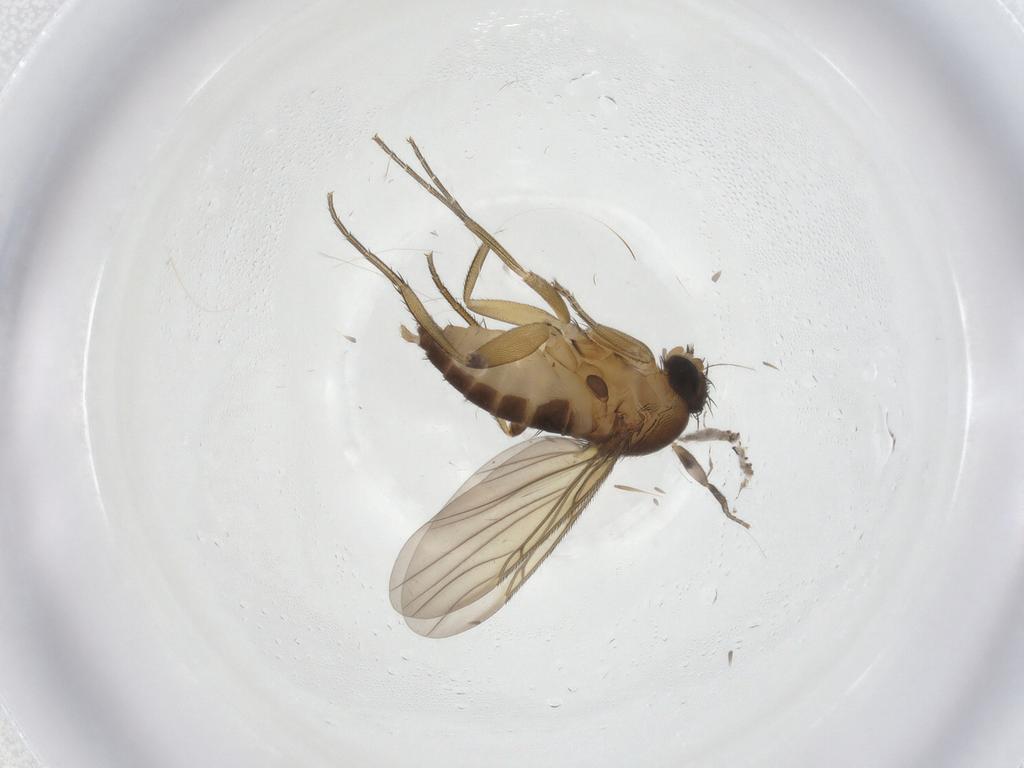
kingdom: Animalia
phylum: Arthropoda
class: Insecta
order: Diptera
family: Phoridae
